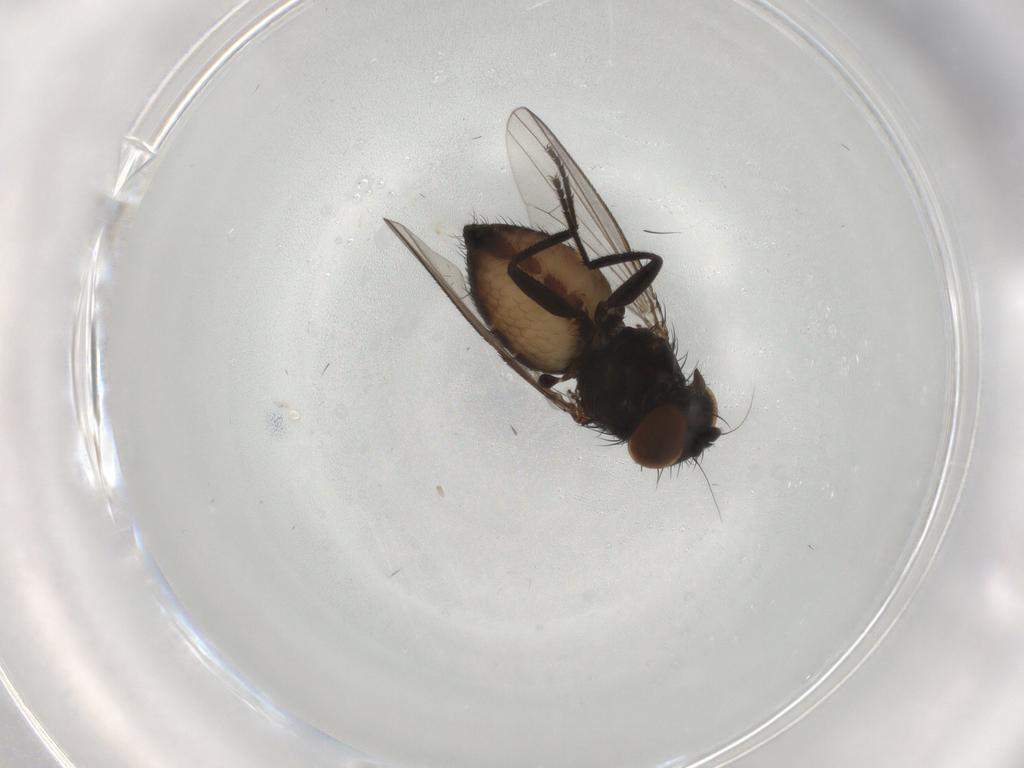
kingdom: Animalia
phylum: Arthropoda
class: Insecta
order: Diptera
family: Milichiidae
